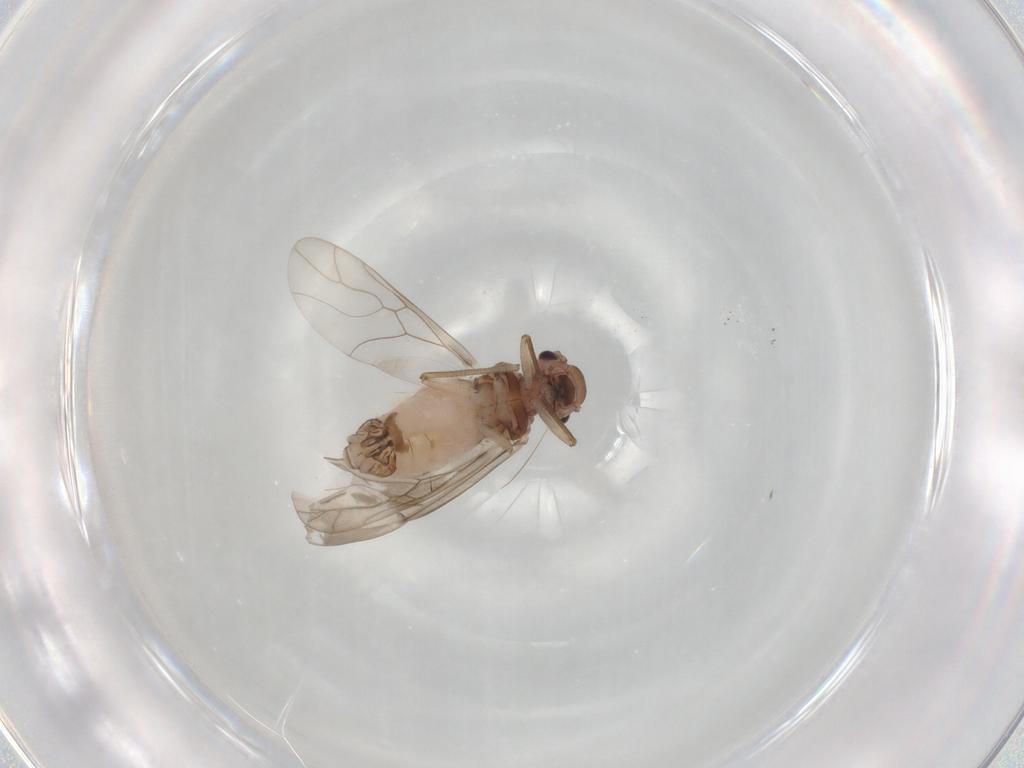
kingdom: Animalia
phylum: Arthropoda
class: Insecta
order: Psocodea
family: Peripsocidae
